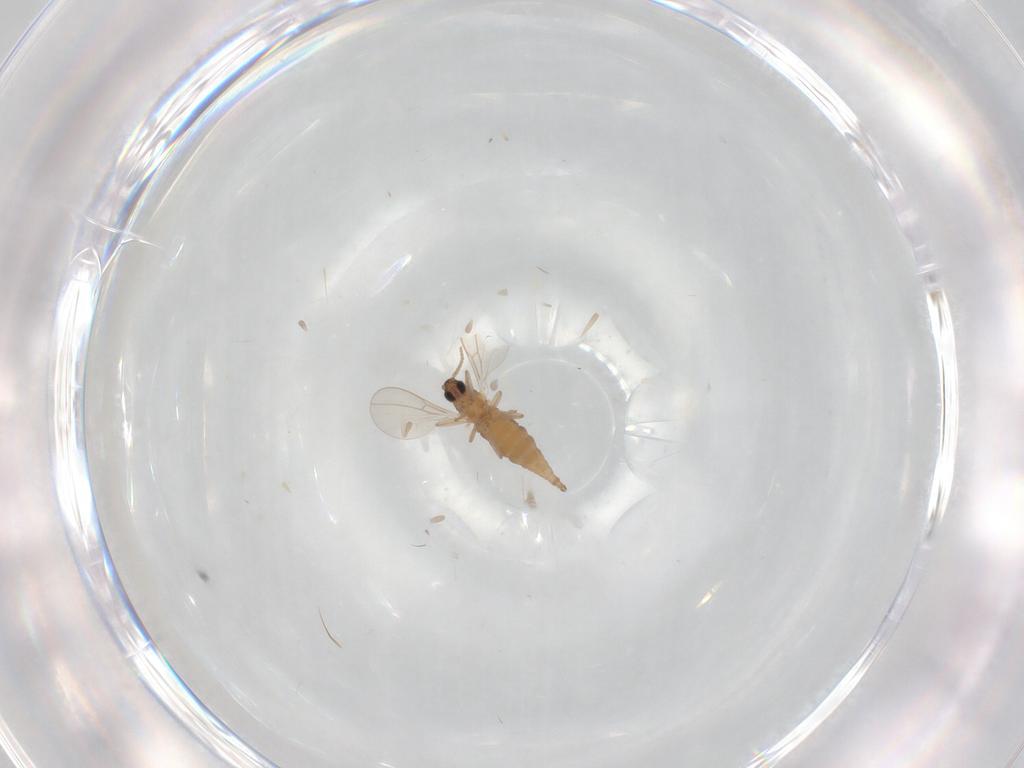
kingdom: Animalia
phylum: Arthropoda
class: Insecta
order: Diptera
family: Cecidomyiidae
